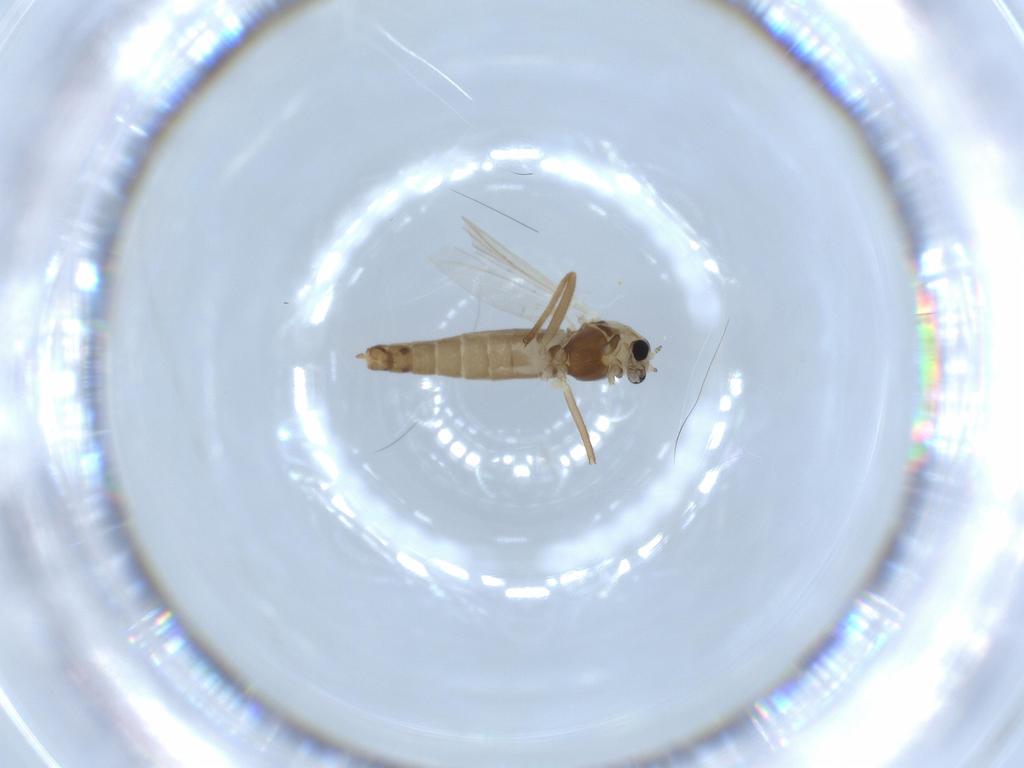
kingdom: Animalia
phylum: Arthropoda
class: Insecta
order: Diptera
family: Chironomidae
